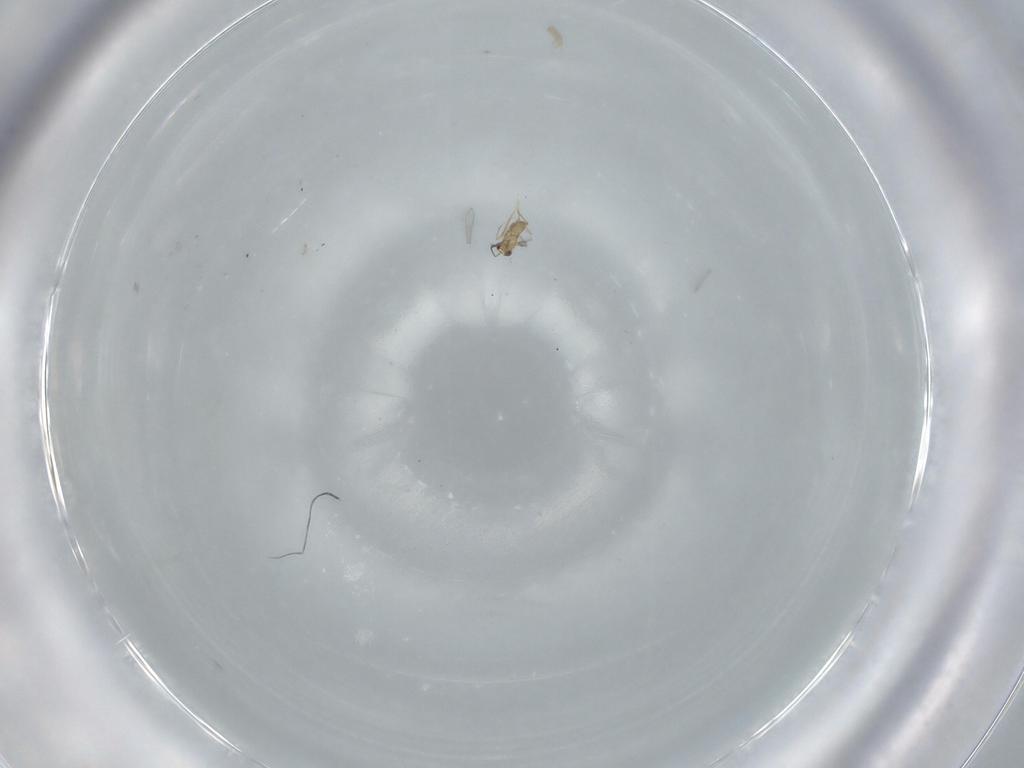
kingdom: Animalia
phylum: Arthropoda
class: Insecta
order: Hymenoptera
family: Mymaridae
